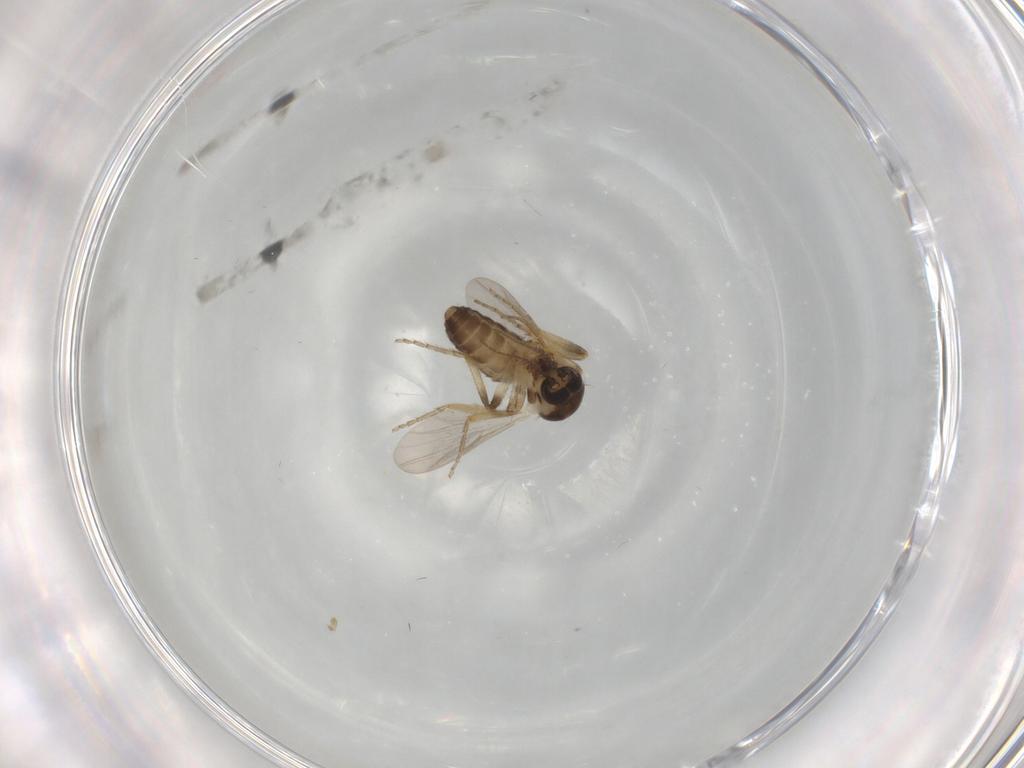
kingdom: Animalia
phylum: Arthropoda
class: Insecta
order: Diptera
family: Ceratopogonidae
